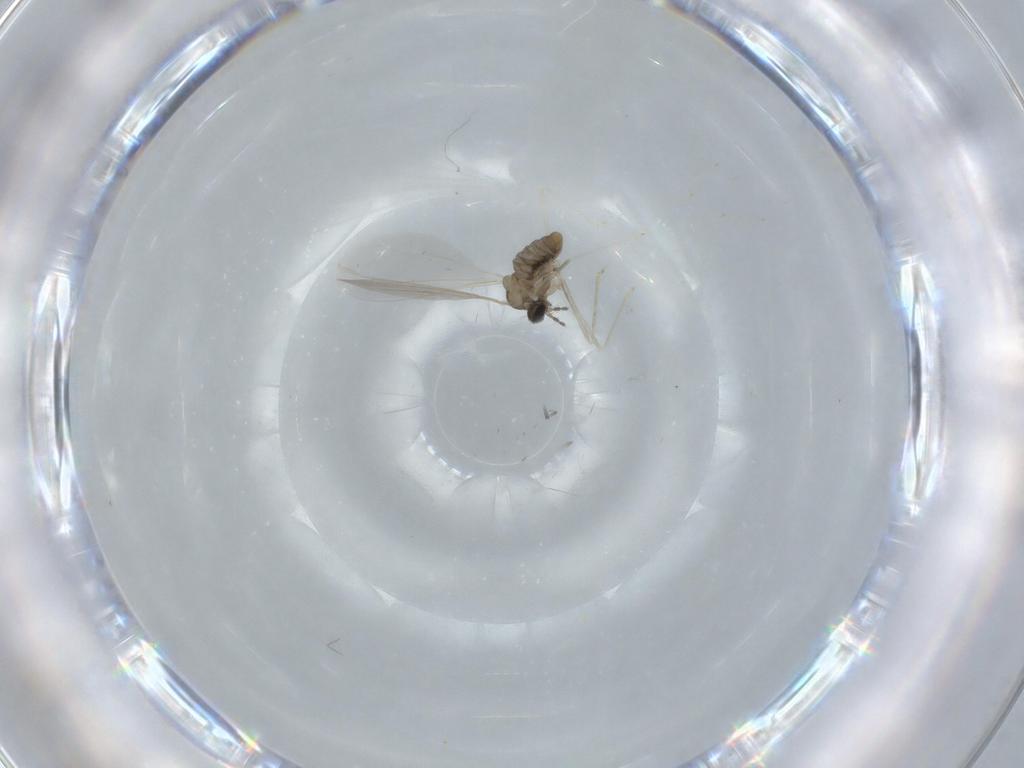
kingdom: Animalia
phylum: Arthropoda
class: Insecta
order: Diptera
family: Cecidomyiidae
